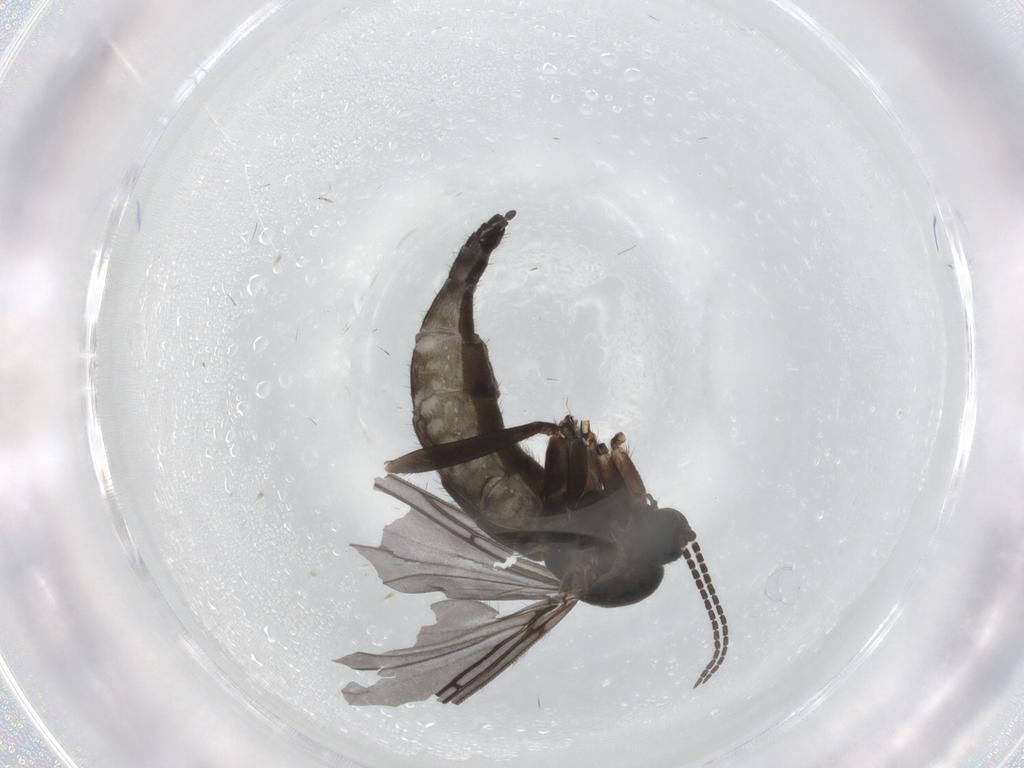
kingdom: Animalia
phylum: Arthropoda
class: Insecta
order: Diptera
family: Sciaridae
